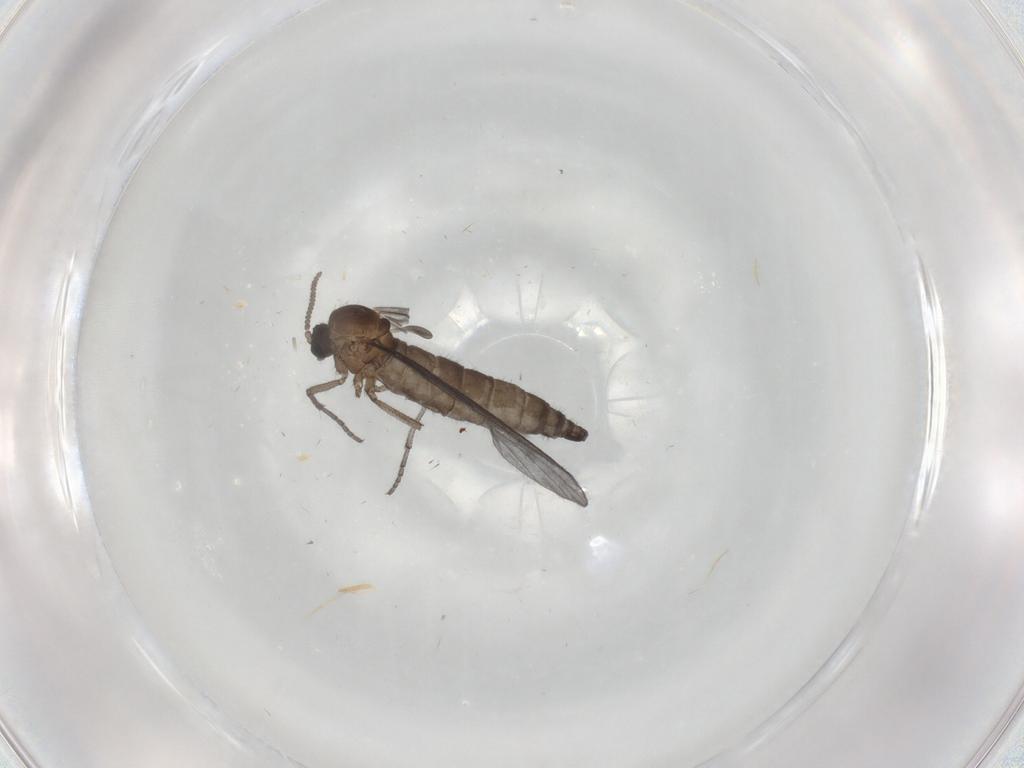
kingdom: Animalia
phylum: Arthropoda
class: Insecta
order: Diptera
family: Sciaridae
